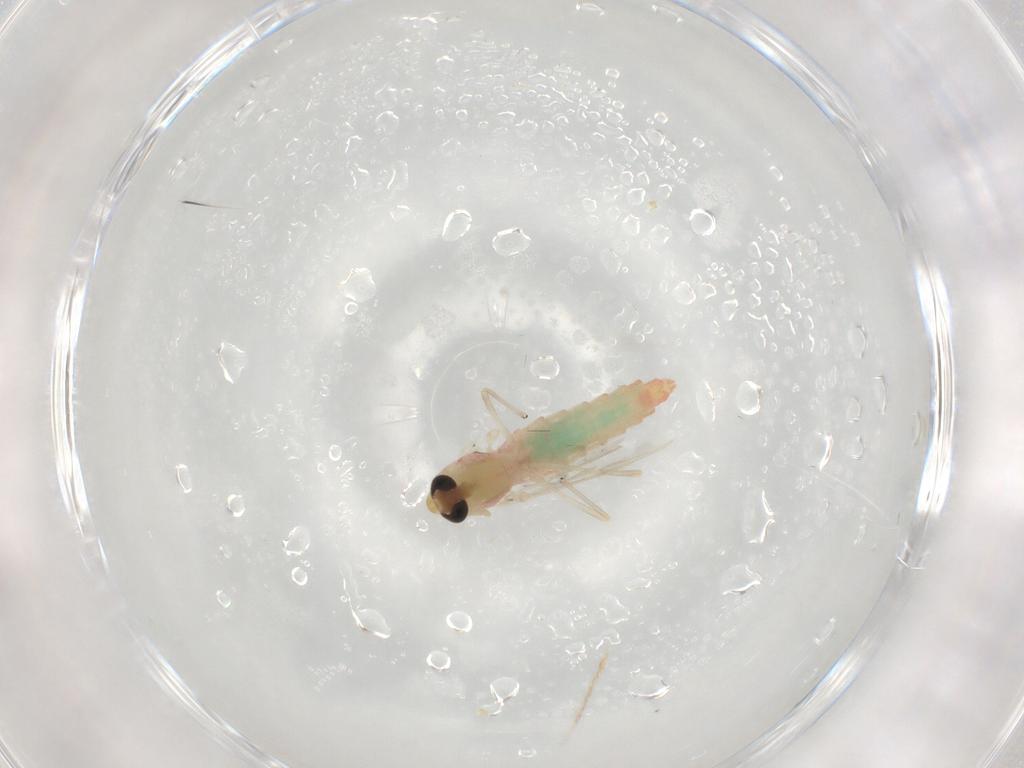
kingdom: Animalia
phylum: Arthropoda
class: Insecta
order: Diptera
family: Chironomidae
